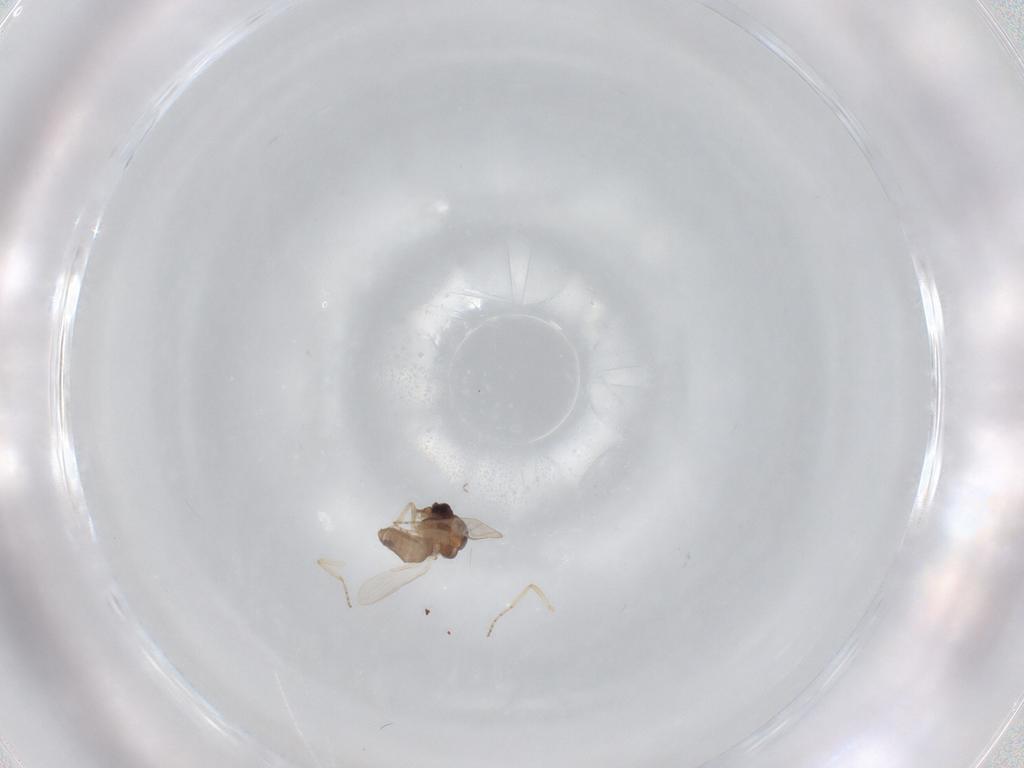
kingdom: Animalia
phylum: Arthropoda
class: Insecta
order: Diptera
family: Ceratopogonidae
